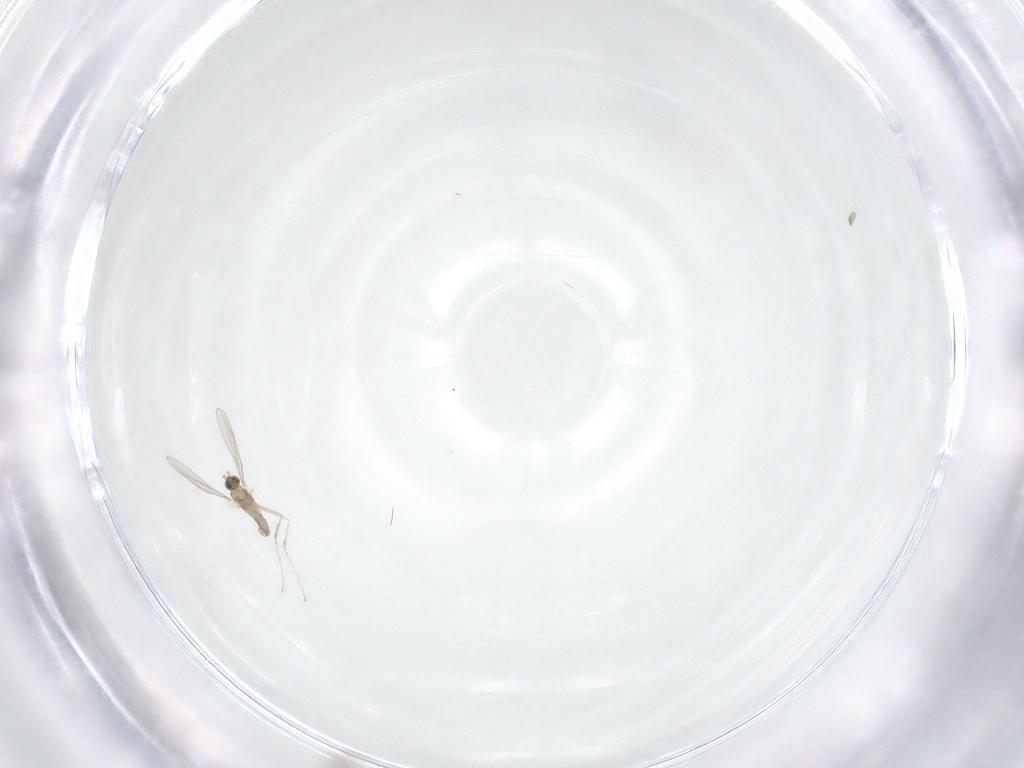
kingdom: Animalia
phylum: Arthropoda
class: Insecta
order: Diptera
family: Cecidomyiidae
